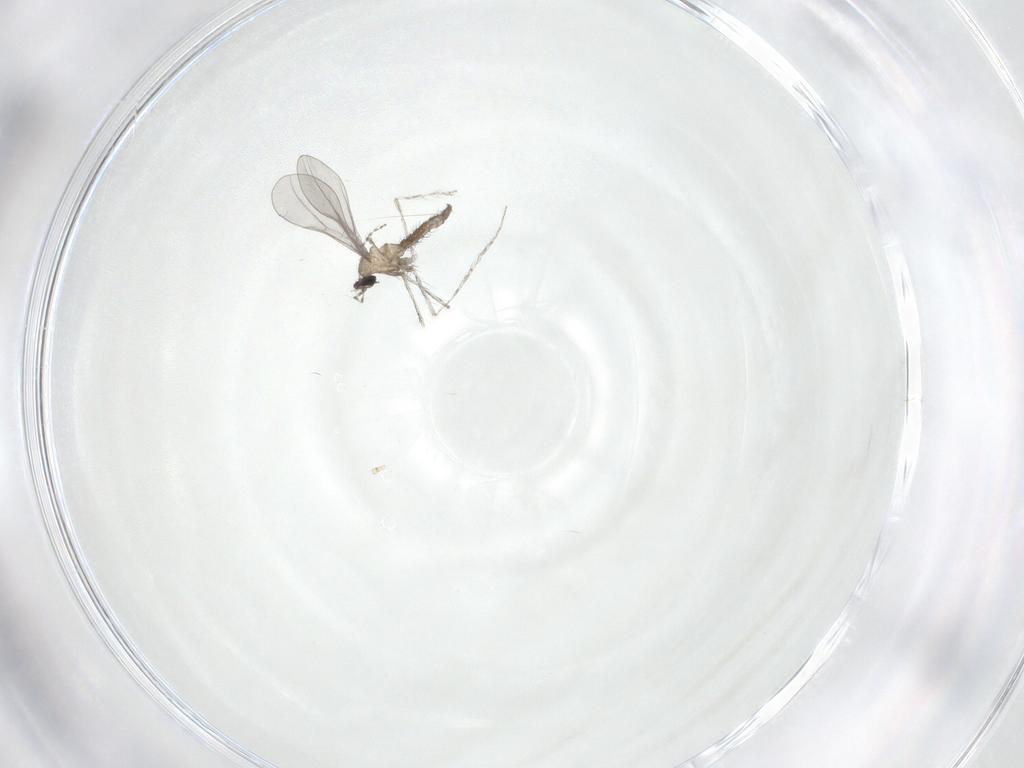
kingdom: Animalia
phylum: Arthropoda
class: Insecta
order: Diptera
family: Cecidomyiidae
